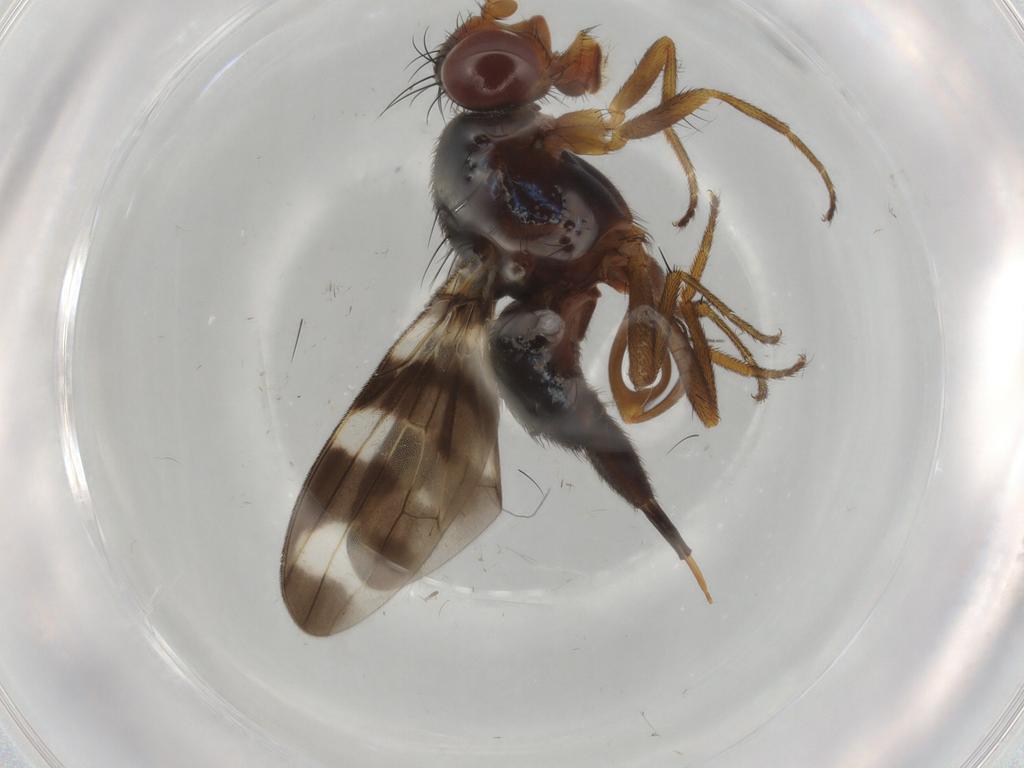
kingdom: Animalia
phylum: Arthropoda
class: Insecta
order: Diptera
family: Ulidiidae
